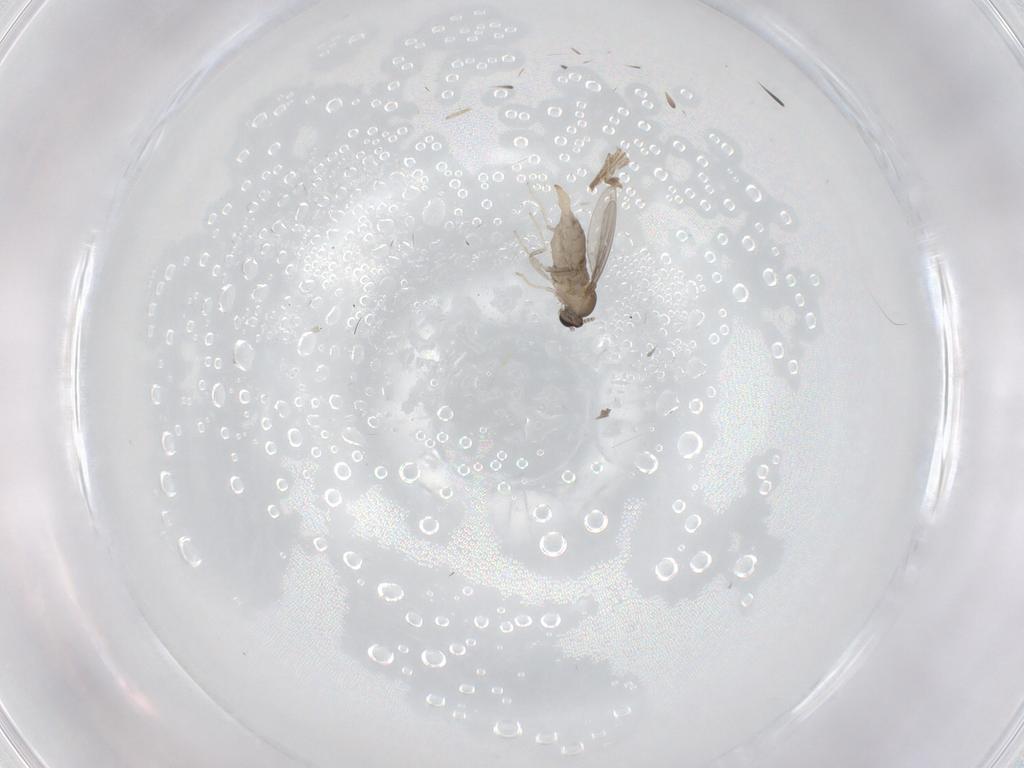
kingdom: Animalia
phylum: Arthropoda
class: Insecta
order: Diptera
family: Cecidomyiidae
